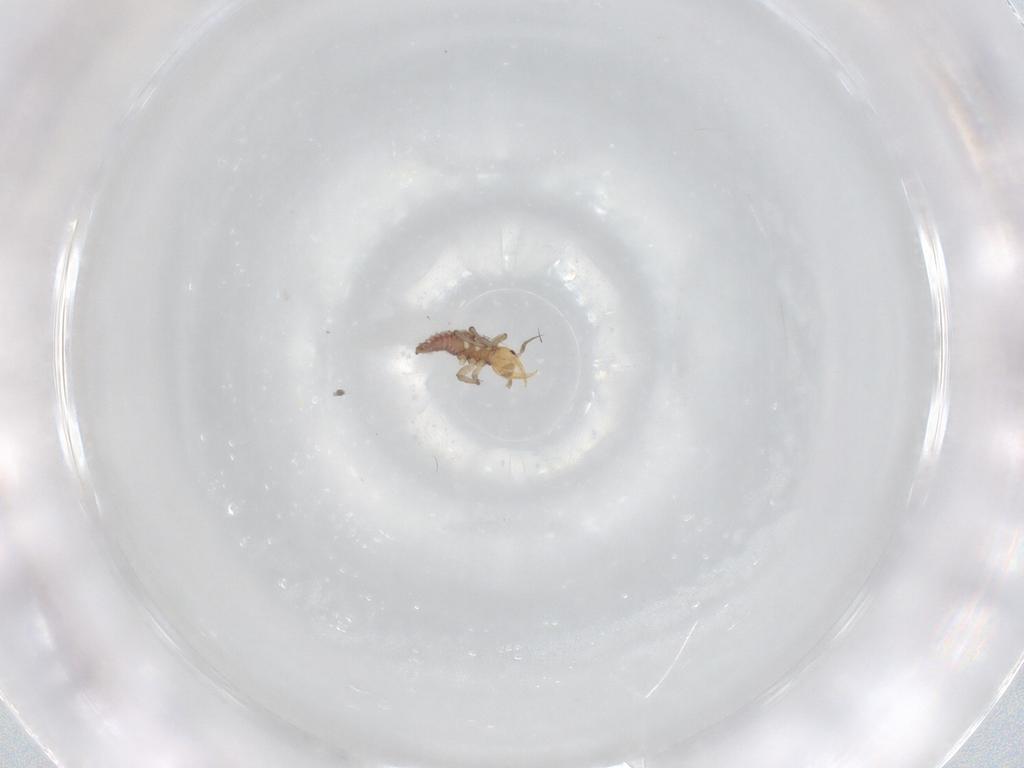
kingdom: Animalia
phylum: Arthropoda
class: Insecta
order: Neuroptera
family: Hemerobiidae
